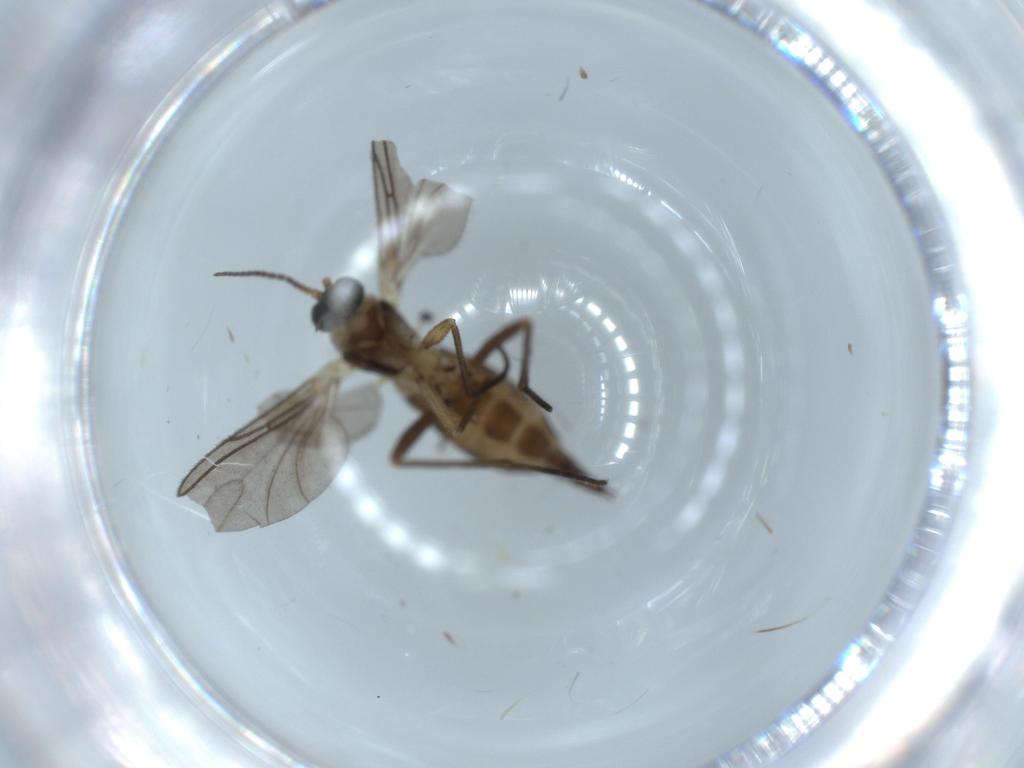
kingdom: Animalia
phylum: Arthropoda
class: Insecta
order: Diptera
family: Sciaridae
